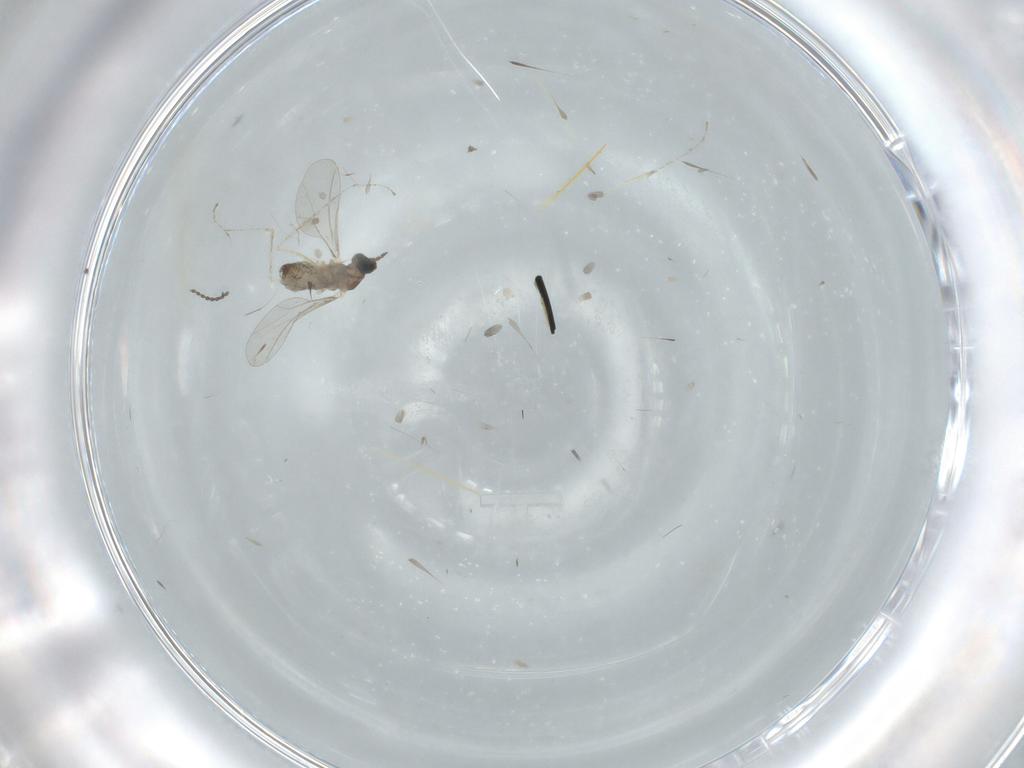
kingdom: Animalia
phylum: Arthropoda
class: Insecta
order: Diptera
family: Cecidomyiidae
